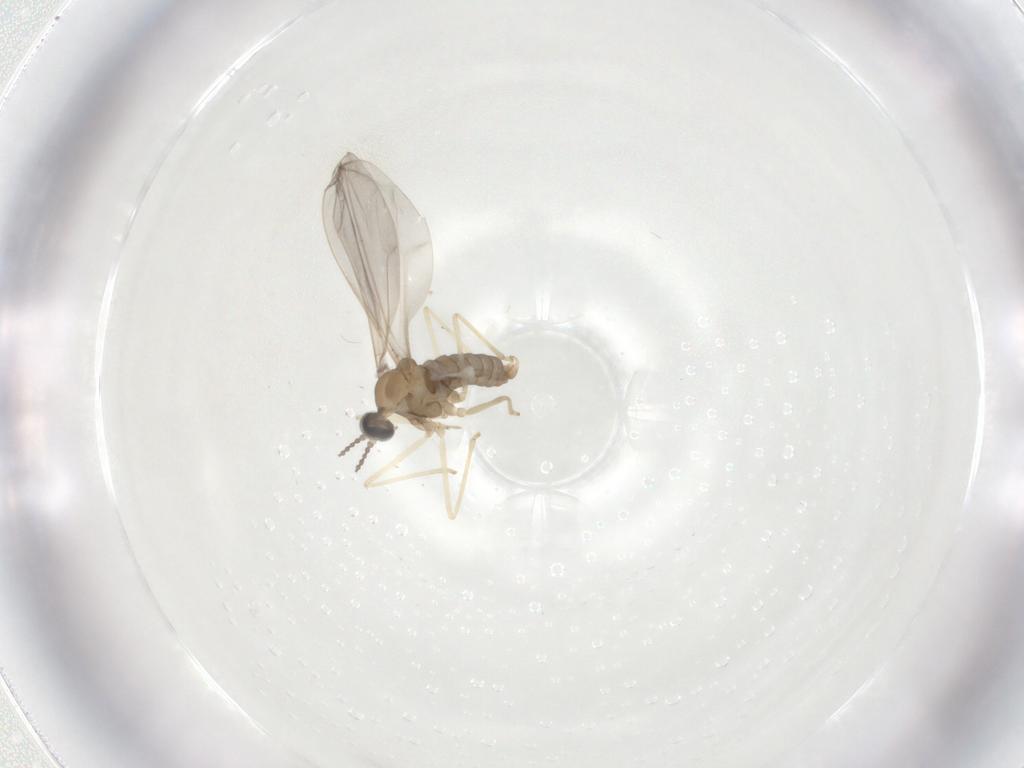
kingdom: Animalia
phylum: Arthropoda
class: Insecta
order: Diptera
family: Cecidomyiidae
